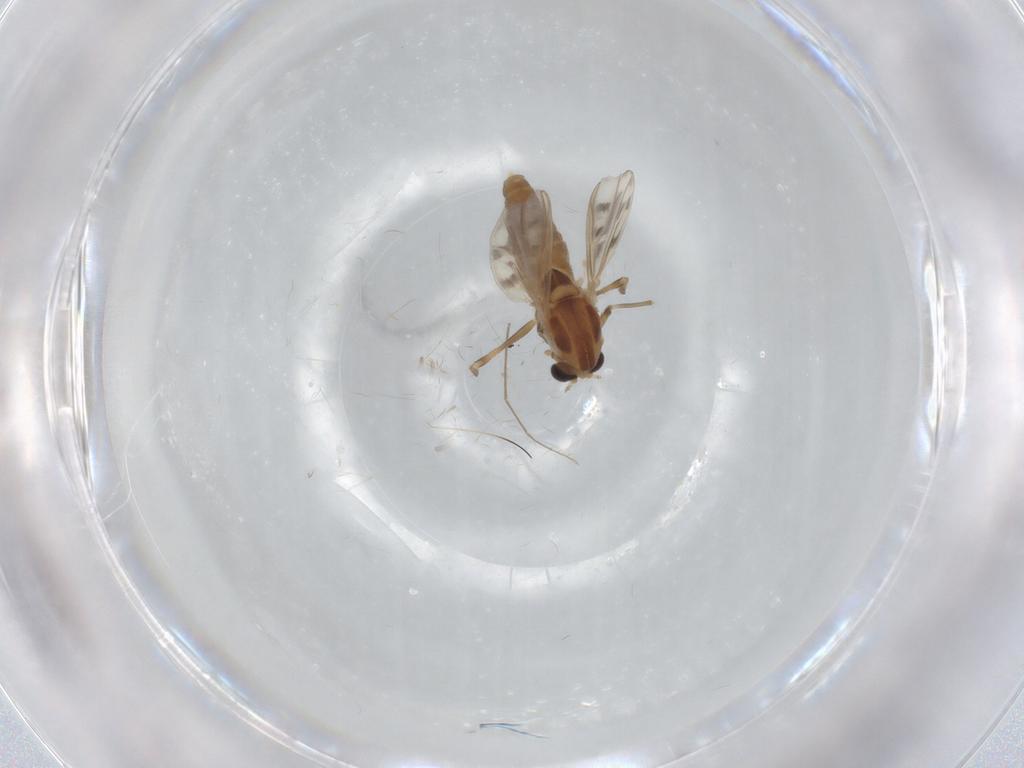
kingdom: Animalia
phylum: Arthropoda
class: Insecta
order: Diptera
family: Chironomidae
